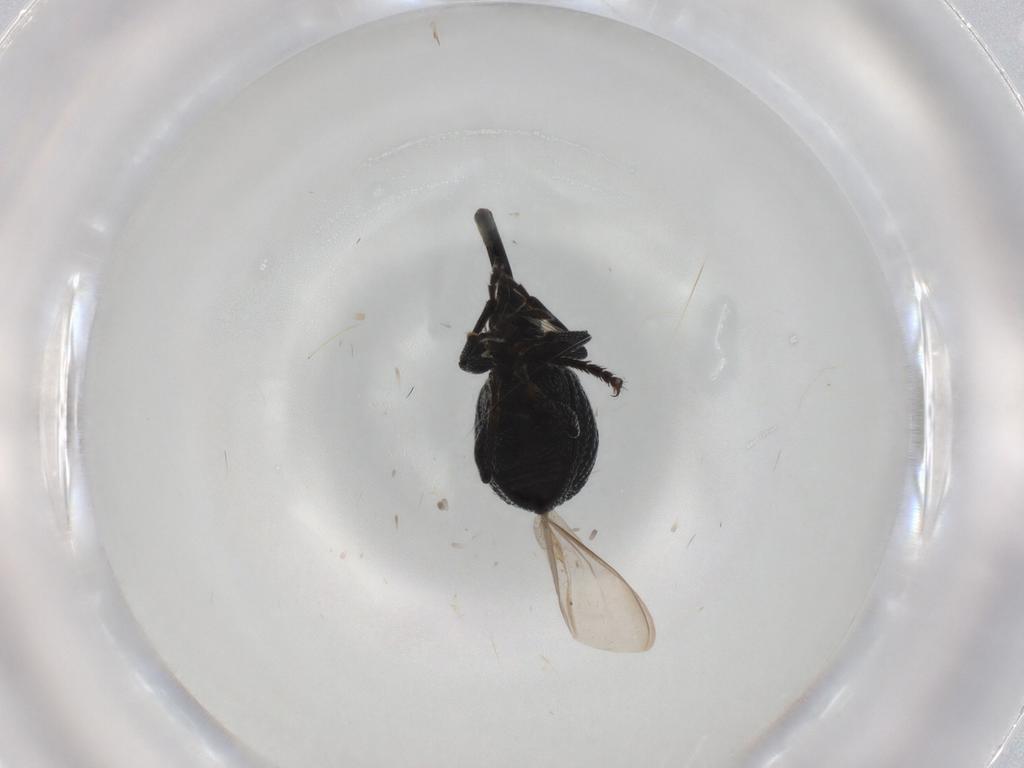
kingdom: Animalia
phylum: Arthropoda
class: Insecta
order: Coleoptera
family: Brentidae
